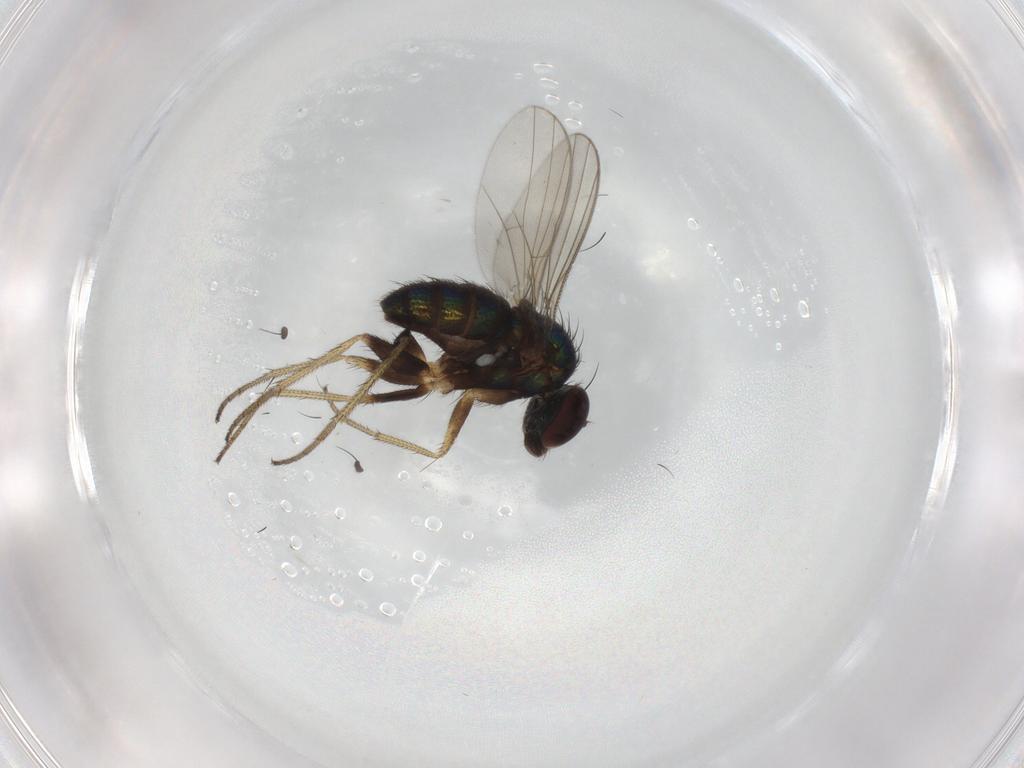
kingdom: Animalia
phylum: Arthropoda
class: Insecta
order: Diptera
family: Dolichopodidae
